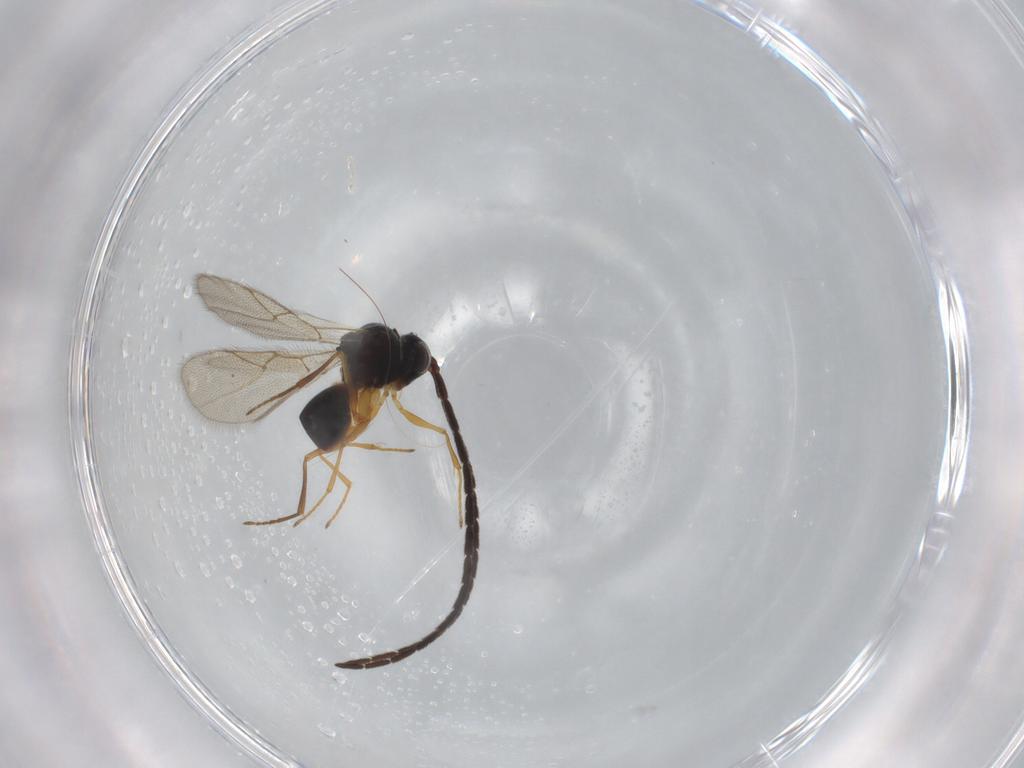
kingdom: Animalia
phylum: Arthropoda
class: Insecta
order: Hymenoptera
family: Figitidae
